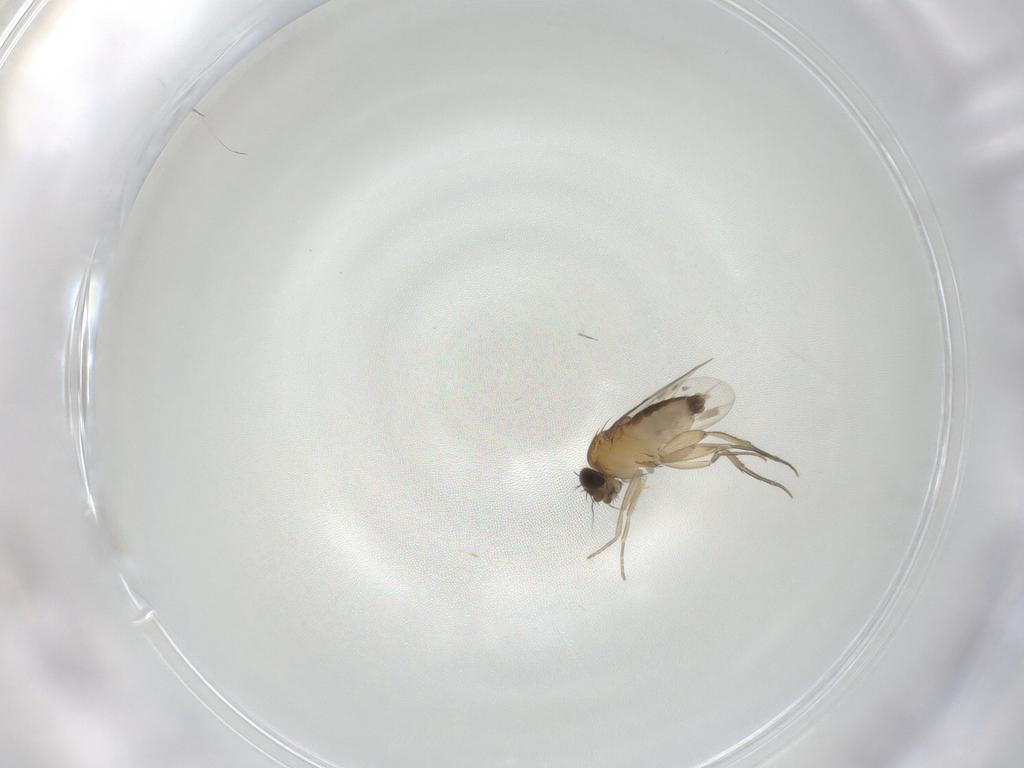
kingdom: Animalia
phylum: Arthropoda
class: Insecta
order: Diptera
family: Phoridae
